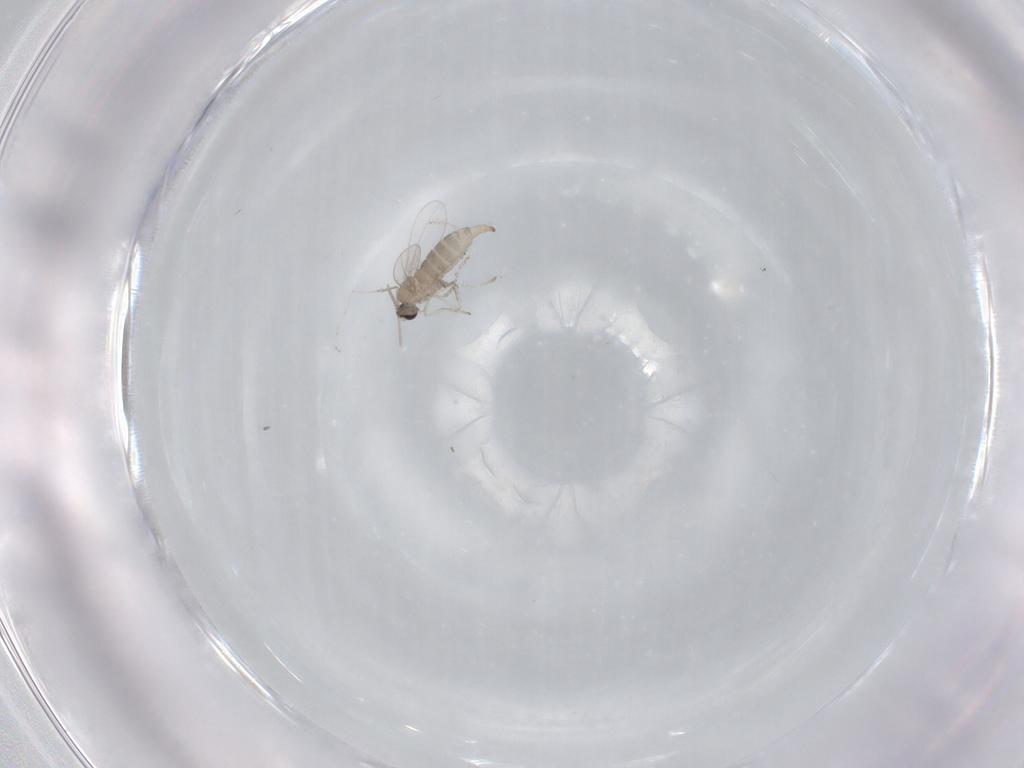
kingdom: Animalia
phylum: Arthropoda
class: Insecta
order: Diptera
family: Cecidomyiidae
